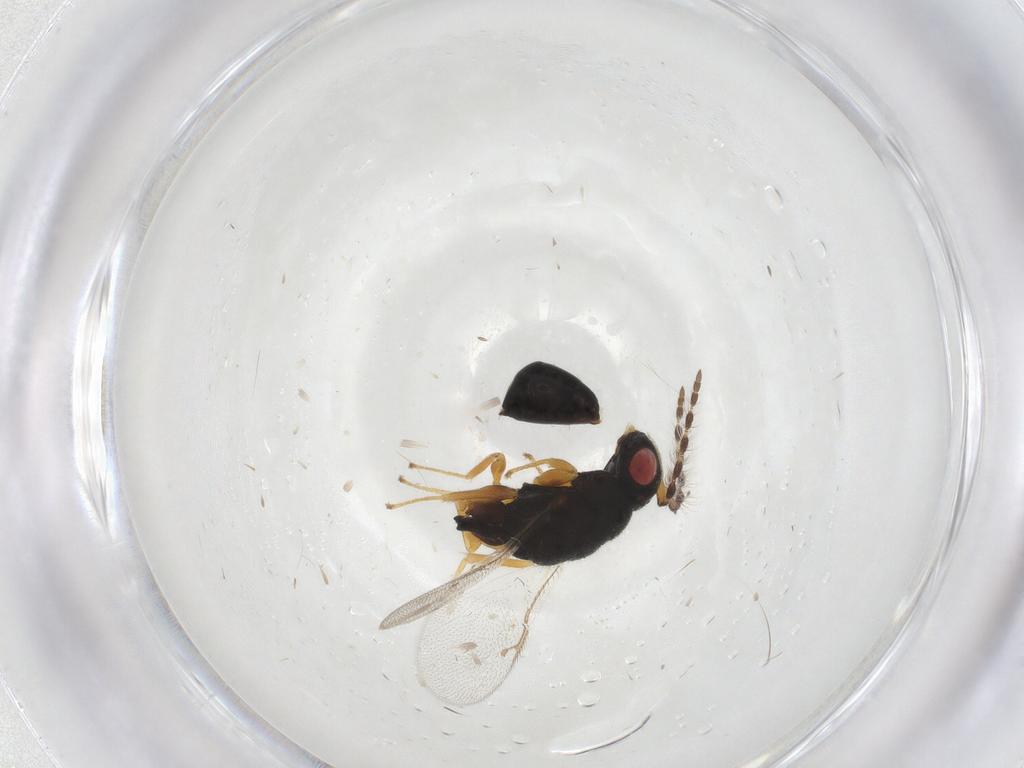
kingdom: Animalia
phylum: Arthropoda
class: Insecta
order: Hymenoptera
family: Eurytomidae
